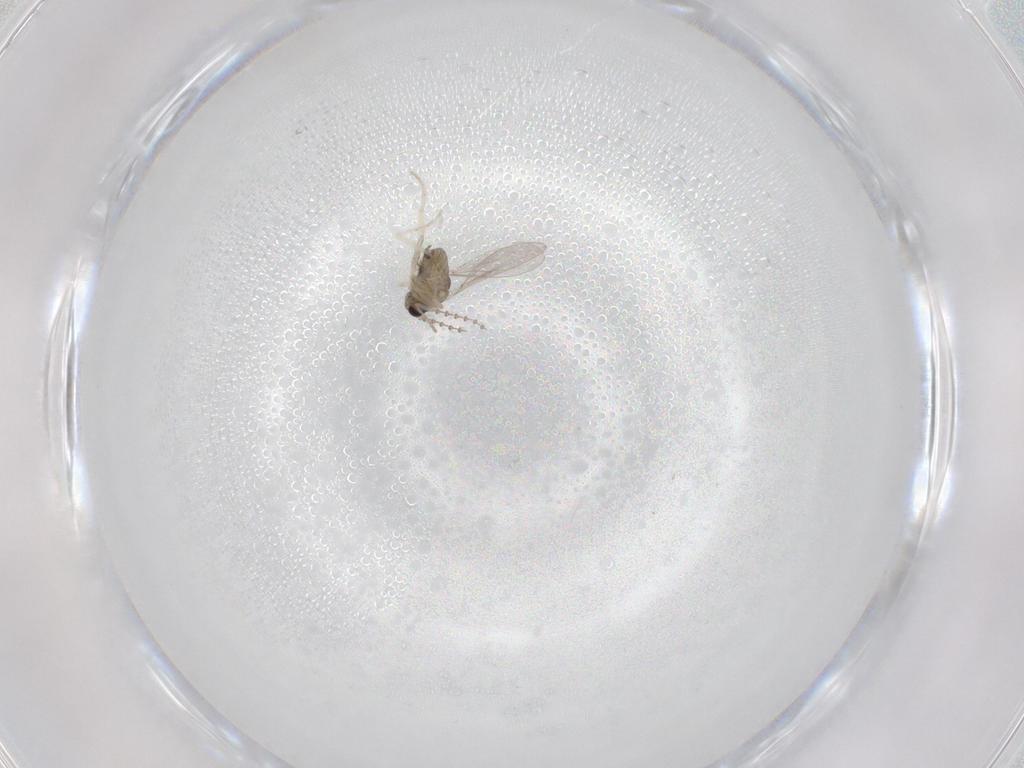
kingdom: Animalia
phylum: Arthropoda
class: Insecta
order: Diptera
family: Cecidomyiidae
